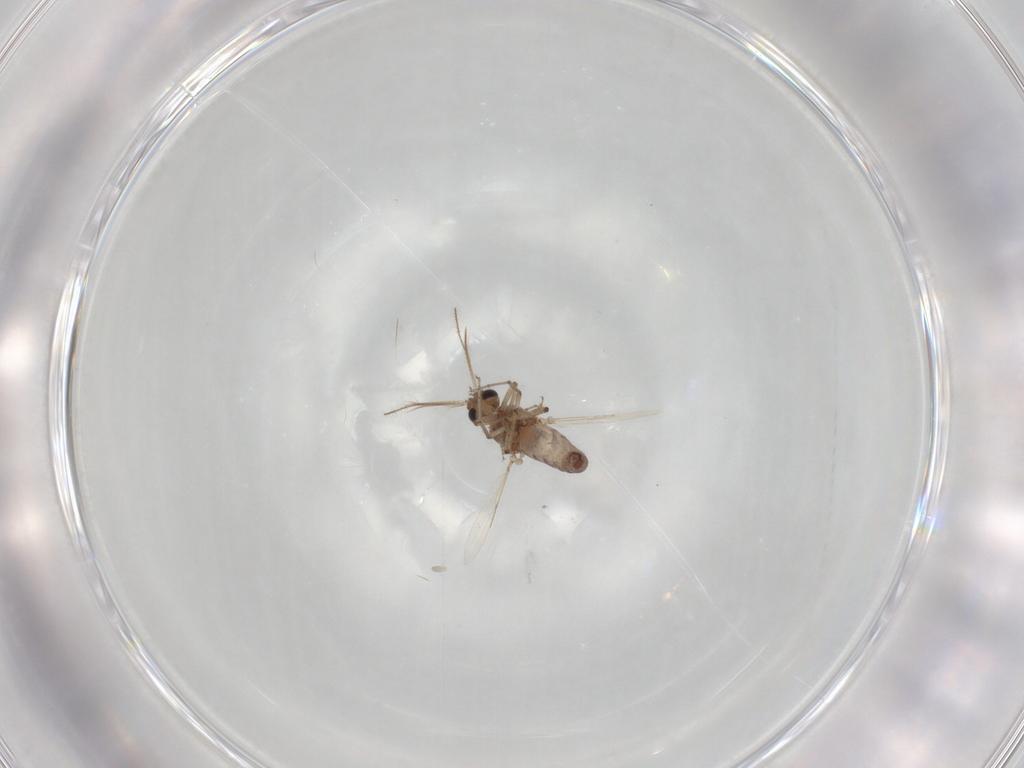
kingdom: Animalia
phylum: Arthropoda
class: Insecta
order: Diptera
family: Ceratopogonidae
